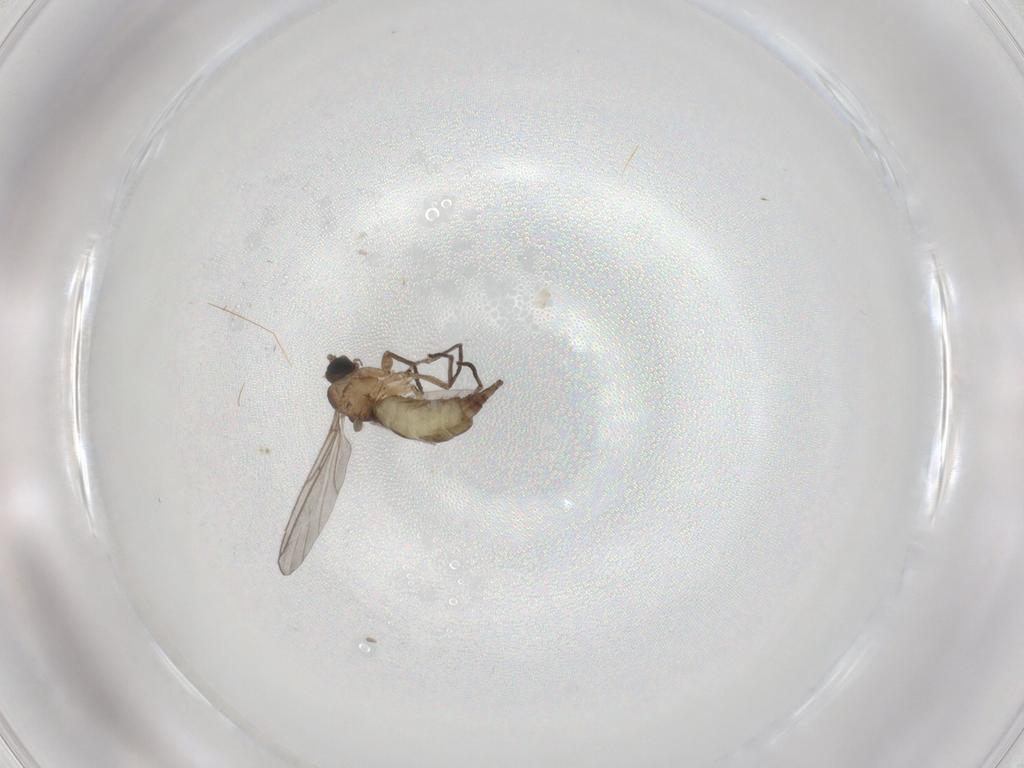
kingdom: Animalia
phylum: Arthropoda
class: Insecta
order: Diptera
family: Sciaridae
